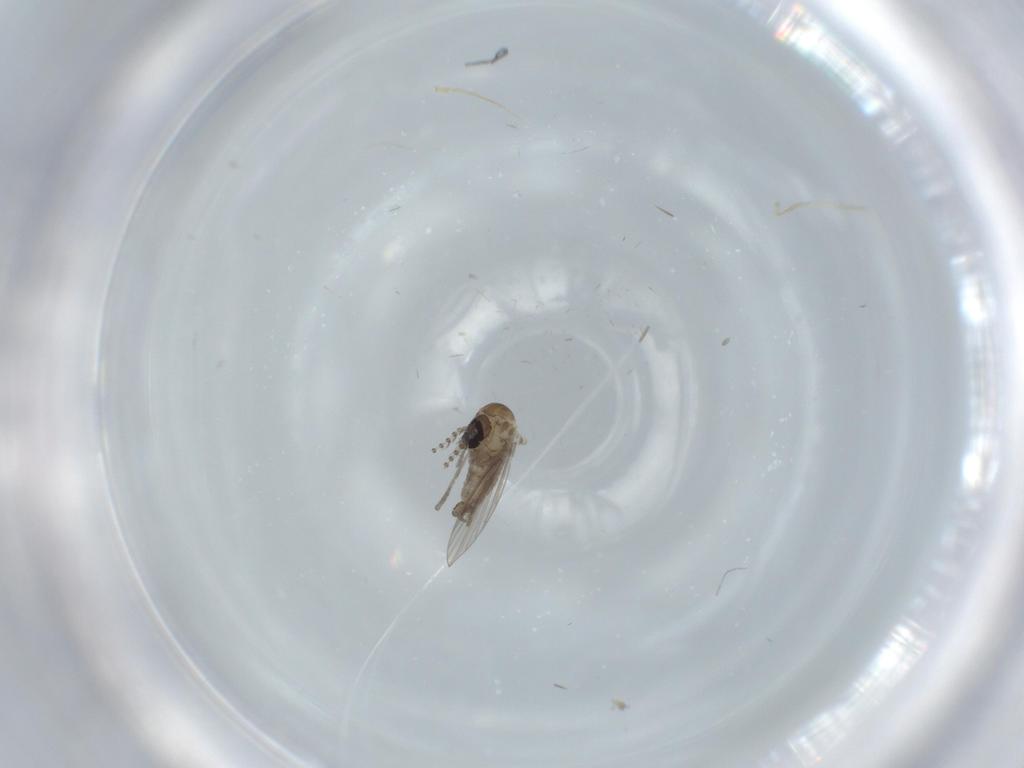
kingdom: Animalia
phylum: Arthropoda
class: Insecta
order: Diptera
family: Psychodidae
